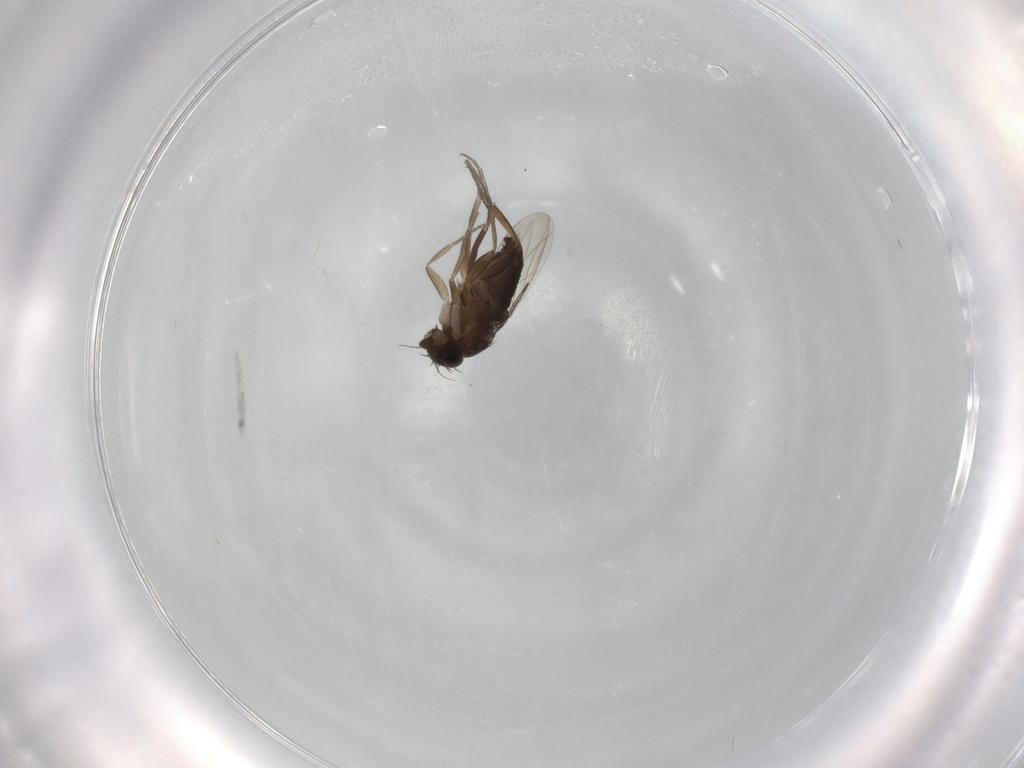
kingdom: Animalia
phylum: Arthropoda
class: Insecta
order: Diptera
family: Phoridae
